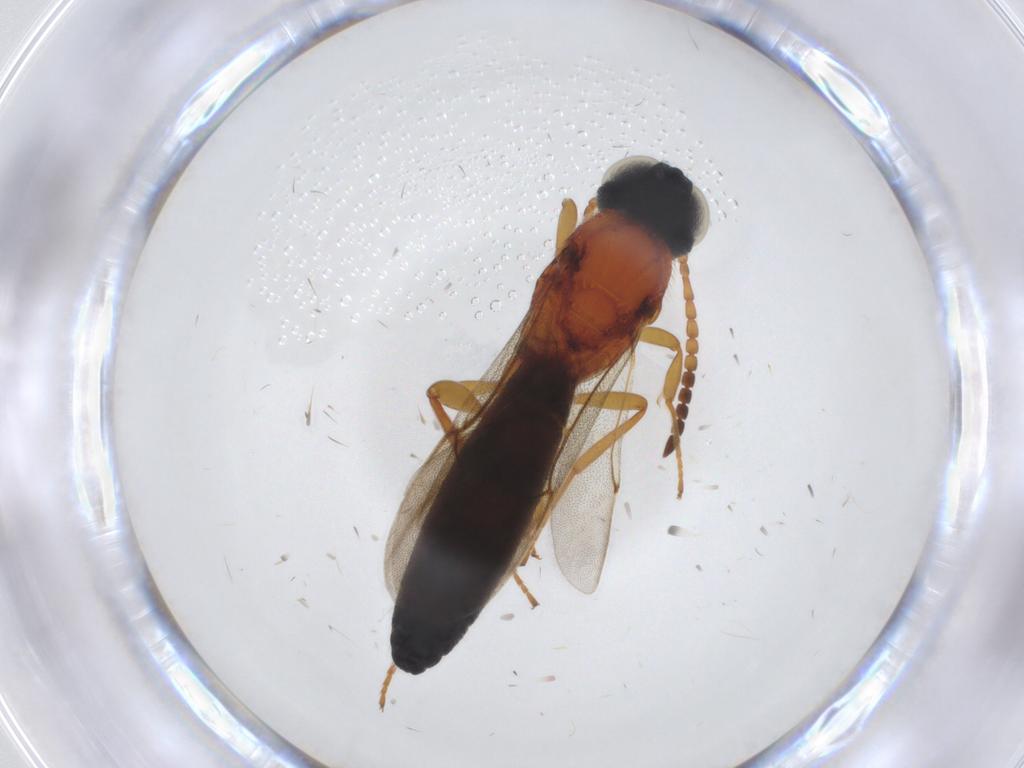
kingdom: Animalia
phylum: Arthropoda
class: Insecta
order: Hymenoptera
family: Scelionidae
